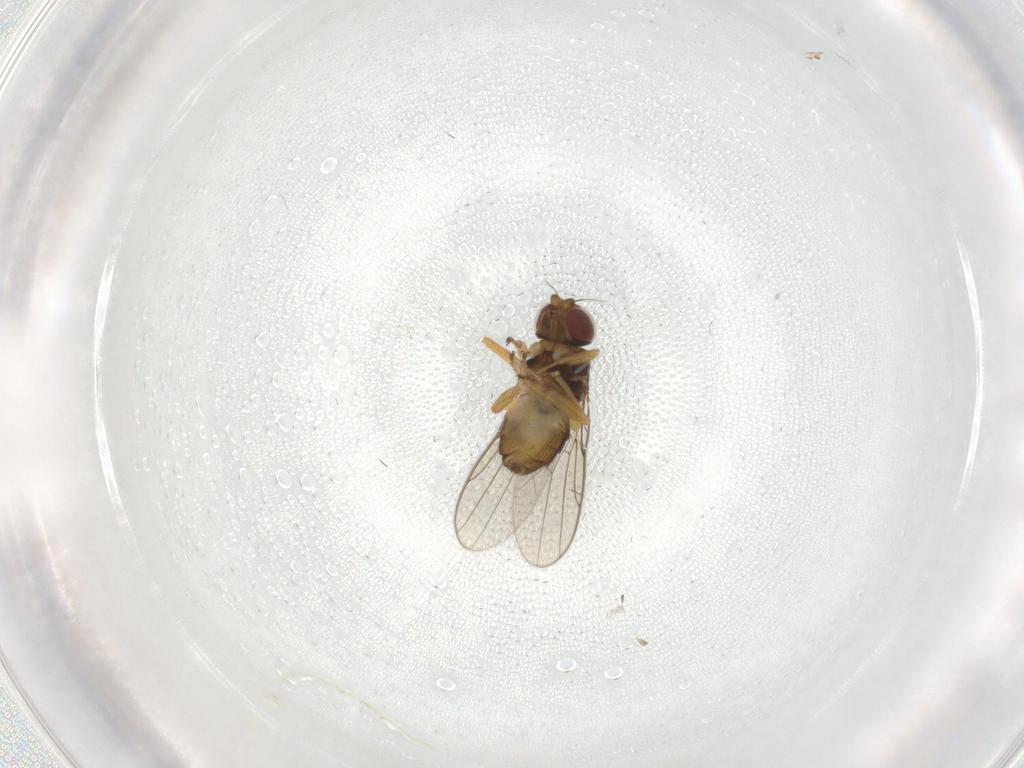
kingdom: Animalia
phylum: Arthropoda
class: Insecta
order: Diptera
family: Chloropidae
